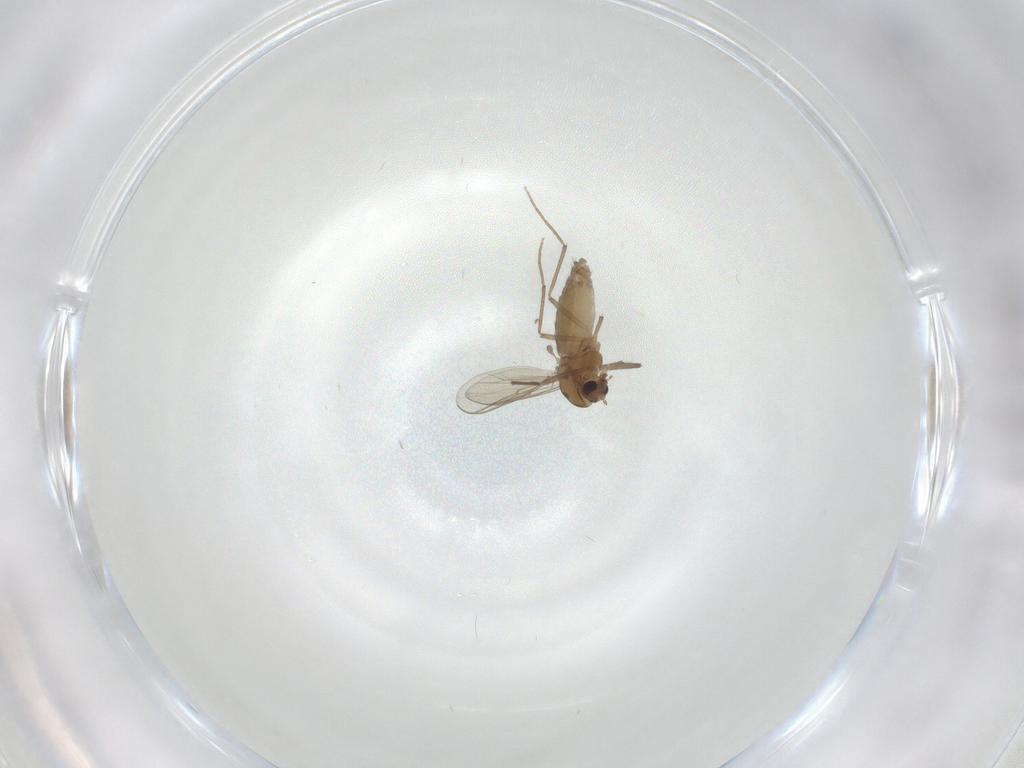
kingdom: Animalia
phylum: Arthropoda
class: Insecta
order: Diptera
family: Chironomidae
